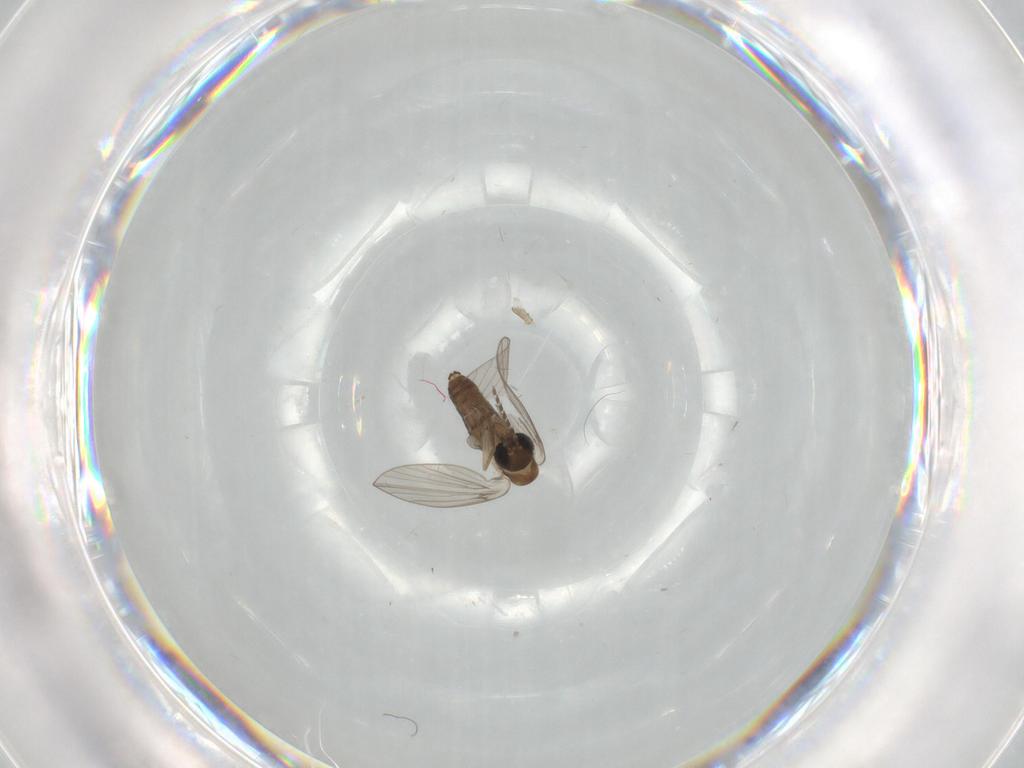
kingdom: Animalia
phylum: Arthropoda
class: Insecta
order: Diptera
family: Psychodidae
